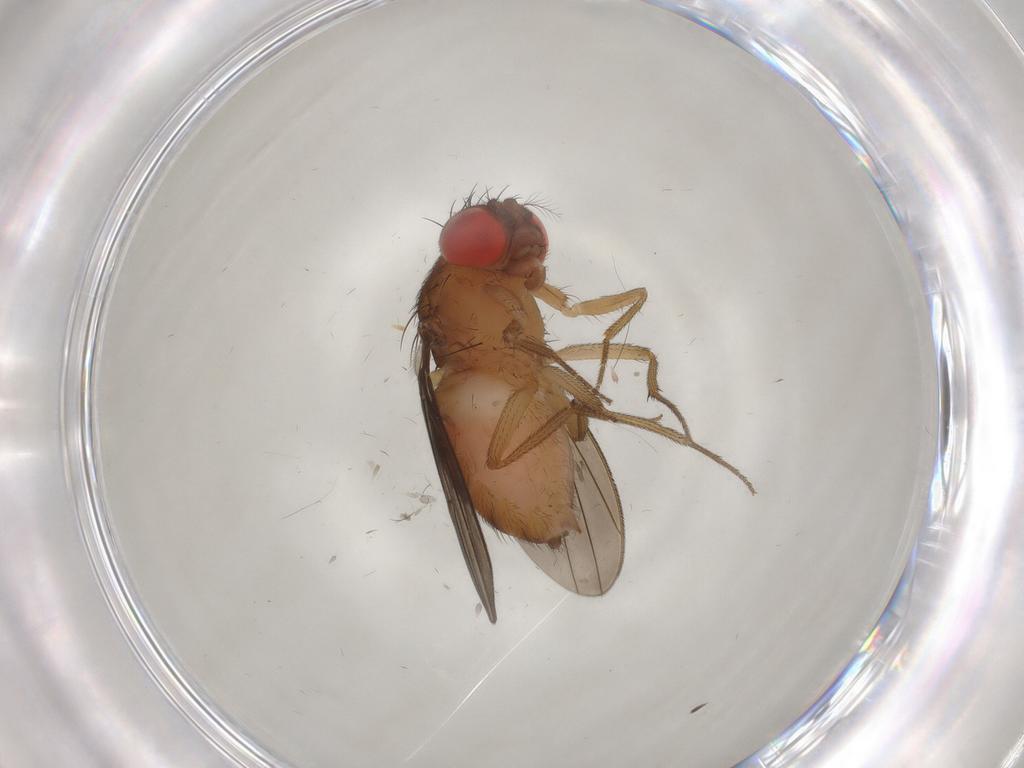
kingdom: Animalia
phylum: Arthropoda
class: Insecta
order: Diptera
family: Drosophilidae
